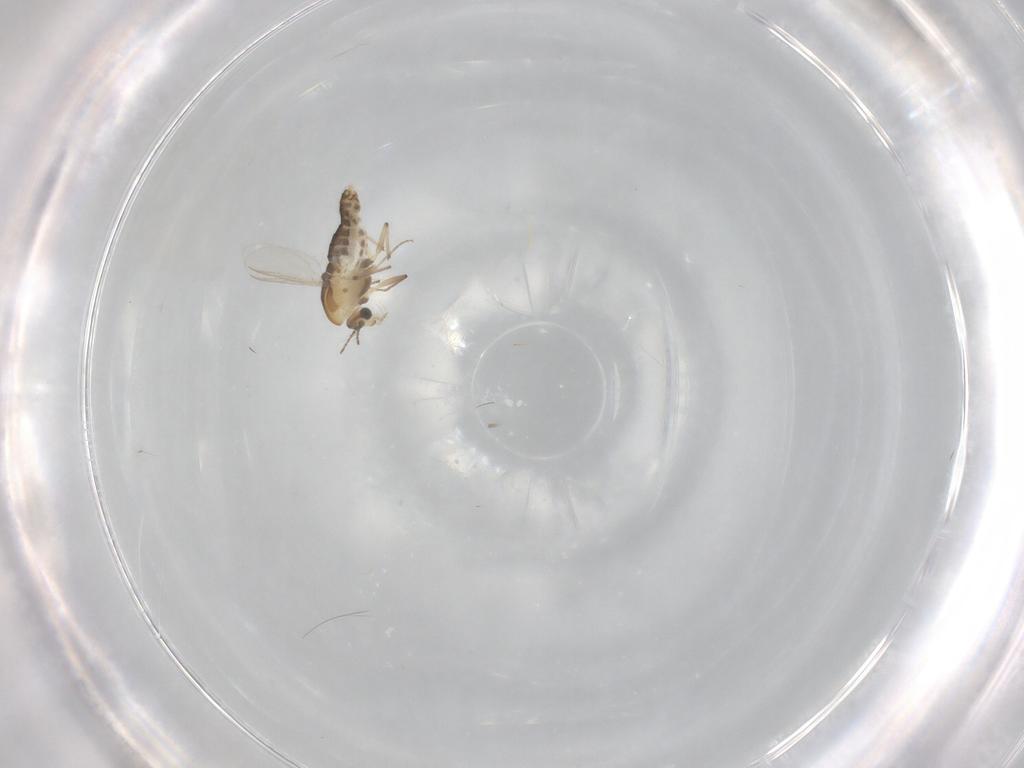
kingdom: Animalia
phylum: Arthropoda
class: Insecta
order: Diptera
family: Chironomidae
